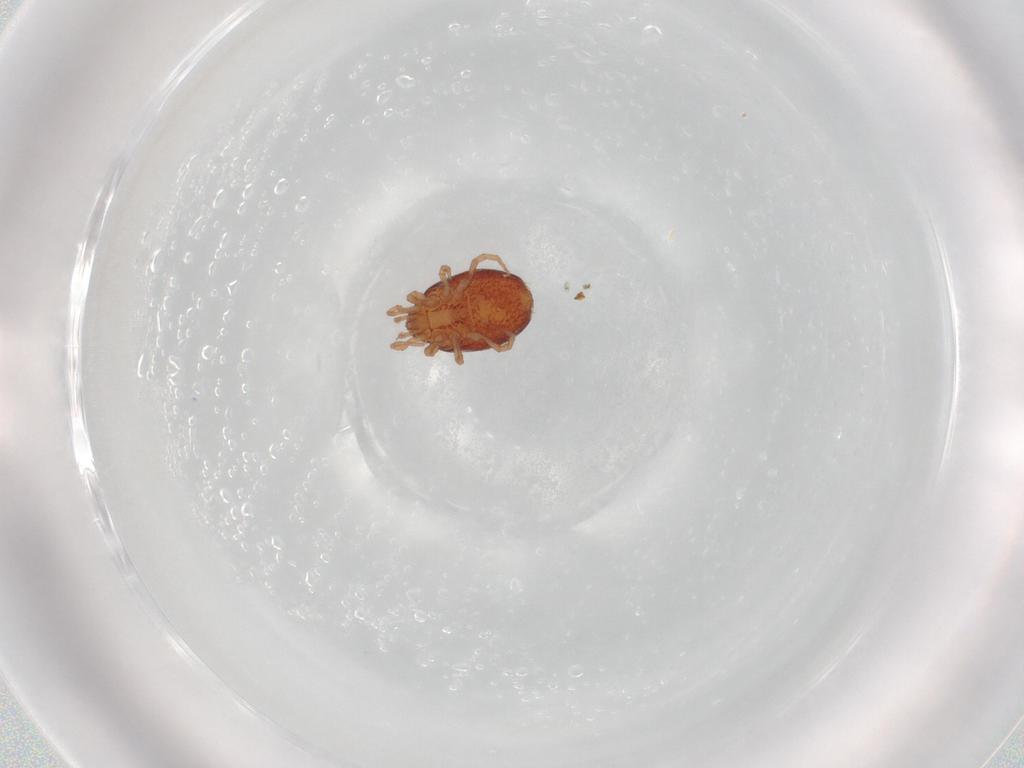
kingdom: Animalia
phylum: Arthropoda
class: Arachnida
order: Mesostigmata
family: Parasitidae
